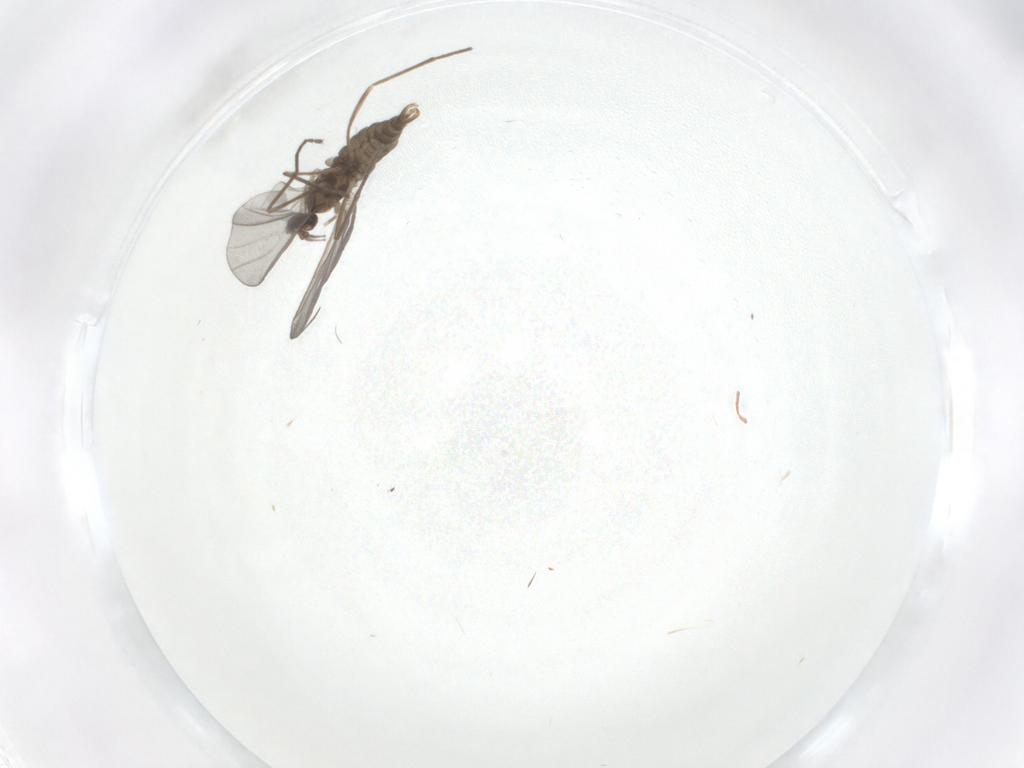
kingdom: Animalia
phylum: Arthropoda
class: Insecta
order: Diptera
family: Cecidomyiidae
